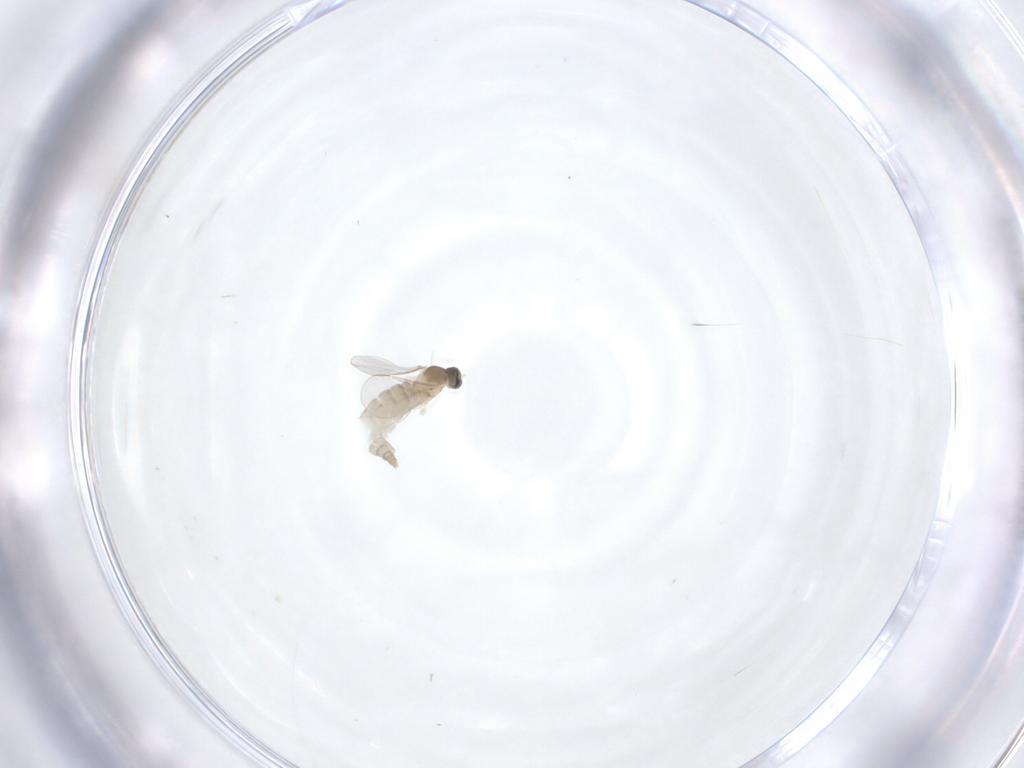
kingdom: Animalia
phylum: Arthropoda
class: Insecta
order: Diptera
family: Cecidomyiidae
